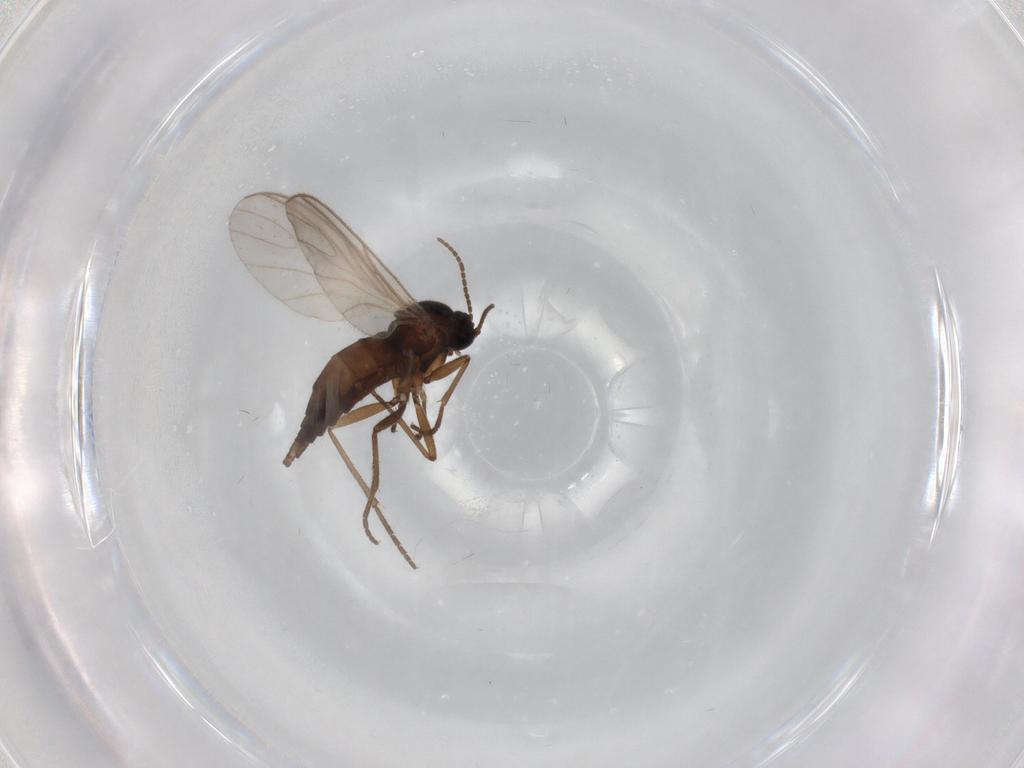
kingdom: Animalia
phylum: Arthropoda
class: Insecta
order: Diptera
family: Sciaridae
